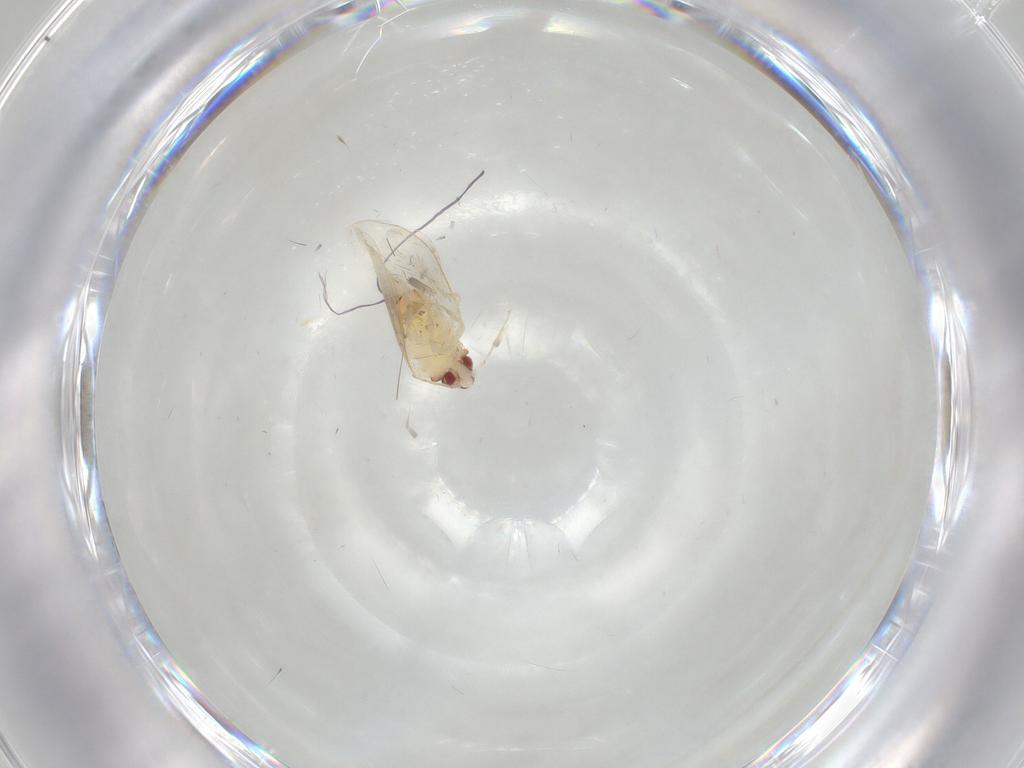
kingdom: Animalia
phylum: Arthropoda
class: Insecta
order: Hemiptera
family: Aleyrodidae
